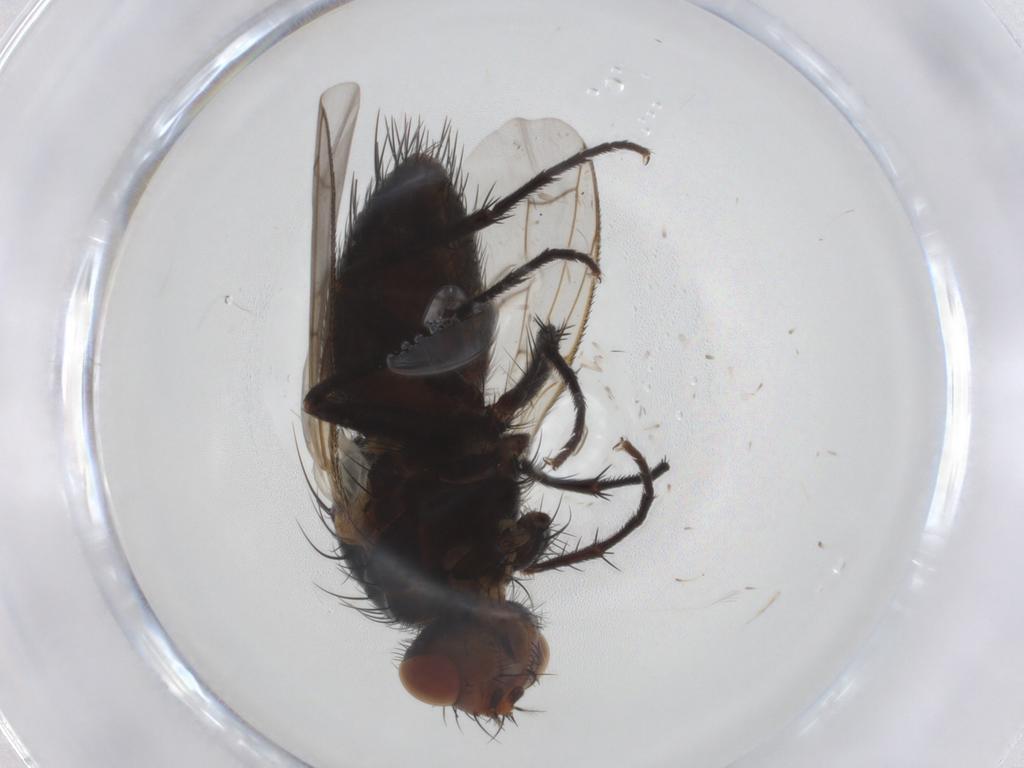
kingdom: Animalia
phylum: Arthropoda
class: Insecta
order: Diptera
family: Tachinidae
